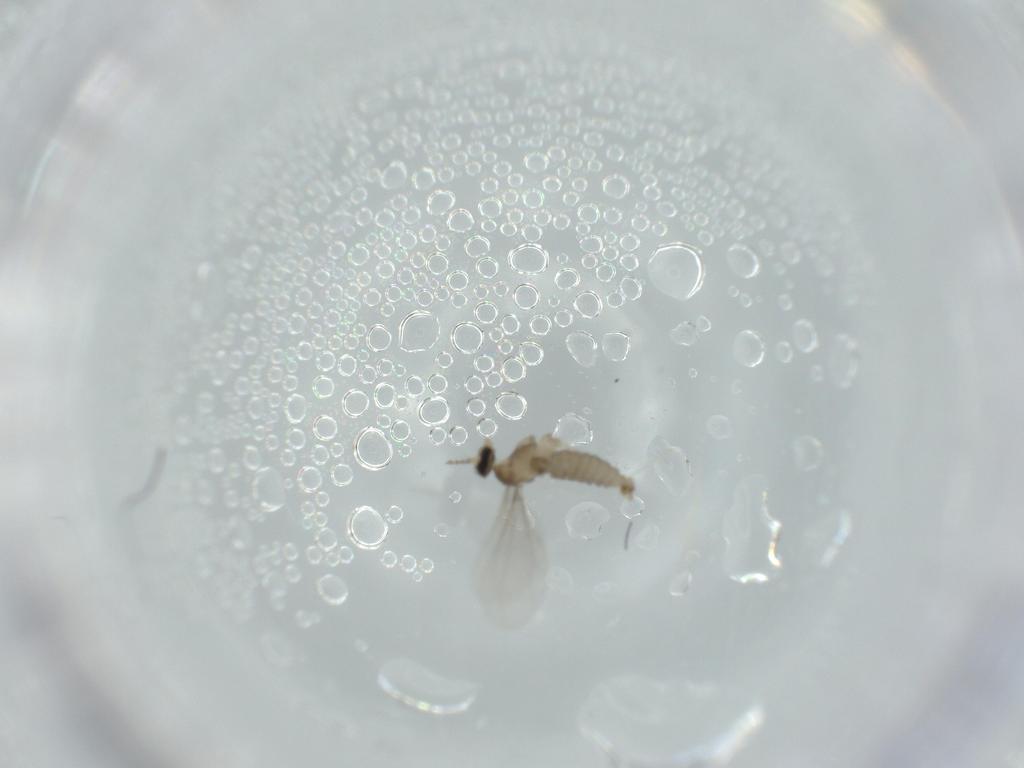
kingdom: Animalia
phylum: Arthropoda
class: Insecta
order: Diptera
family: Cecidomyiidae
